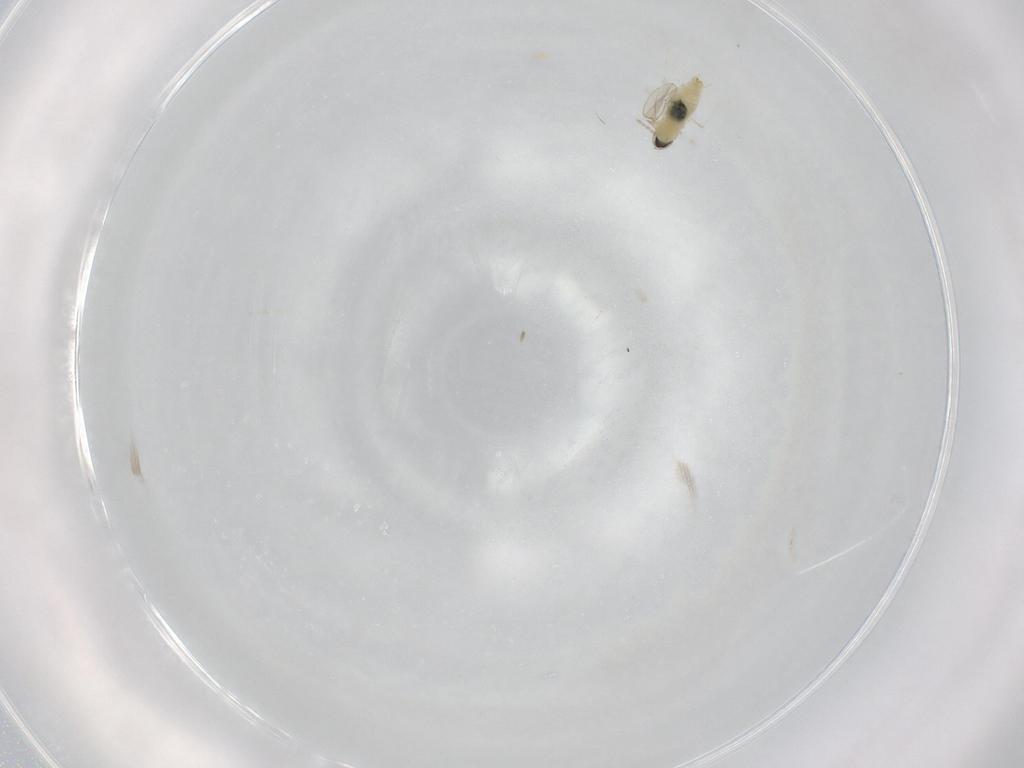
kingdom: Animalia
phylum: Arthropoda
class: Insecta
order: Diptera
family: Cecidomyiidae
